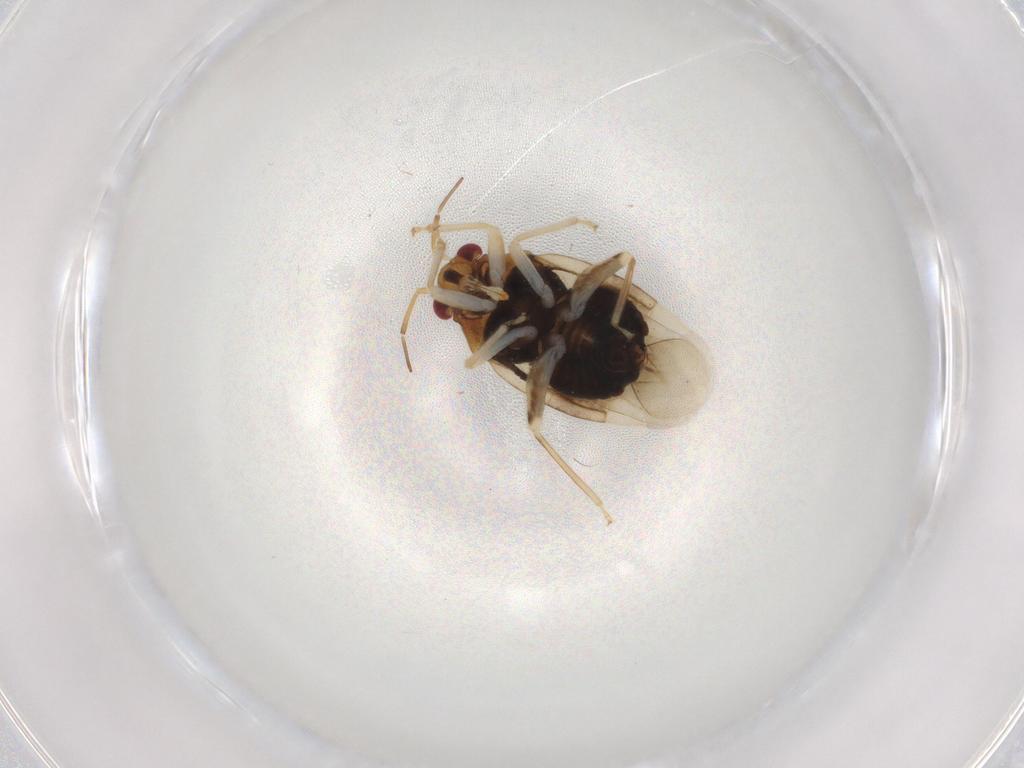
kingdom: Animalia
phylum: Arthropoda
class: Insecta
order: Hemiptera
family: Miridae
